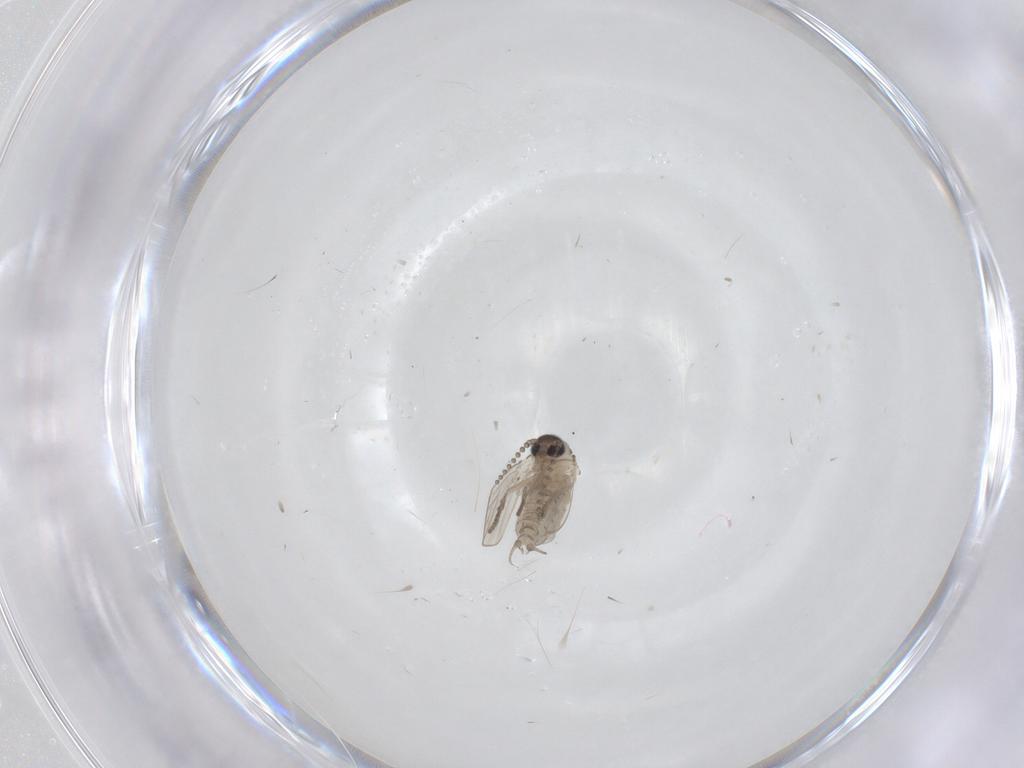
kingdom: Animalia
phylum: Arthropoda
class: Insecta
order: Diptera
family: Psychodidae
